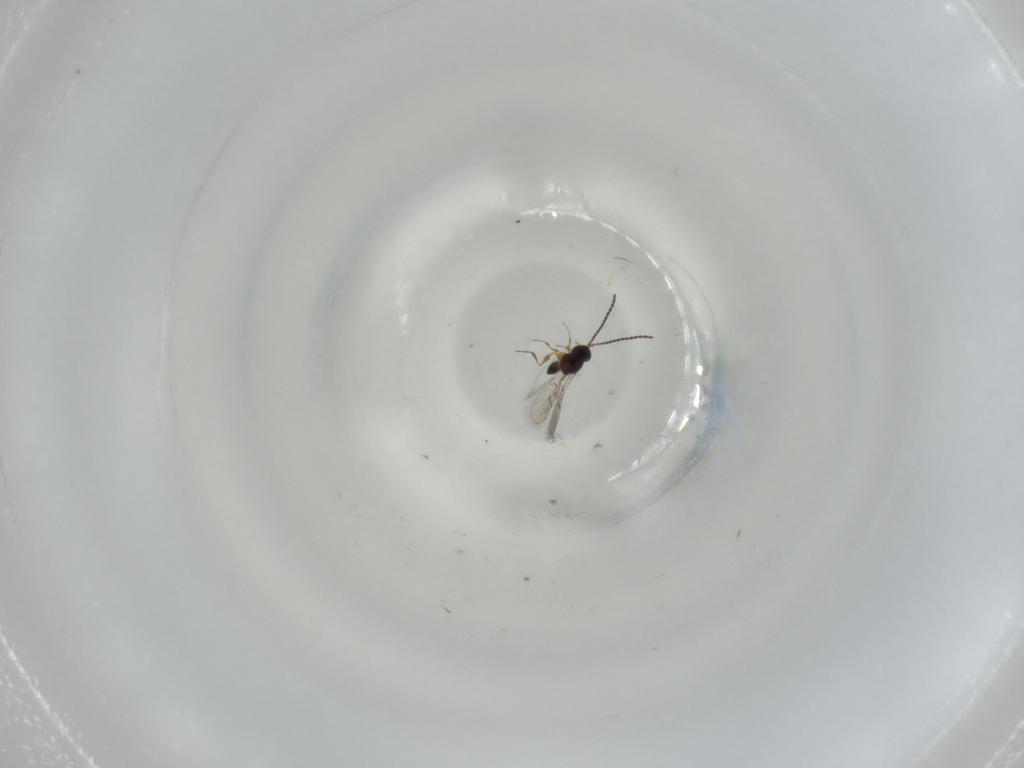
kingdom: Animalia
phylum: Arthropoda
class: Insecta
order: Hymenoptera
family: Figitidae
